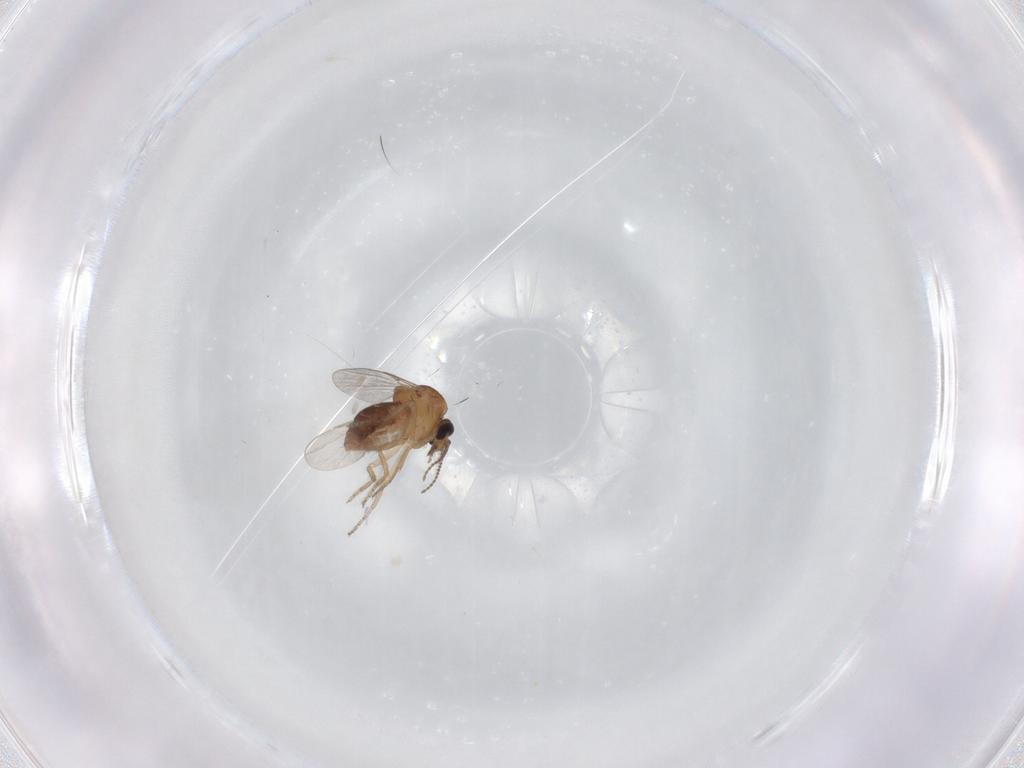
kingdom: Animalia
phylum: Arthropoda
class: Insecta
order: Diptera
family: Ceratopogonidae
